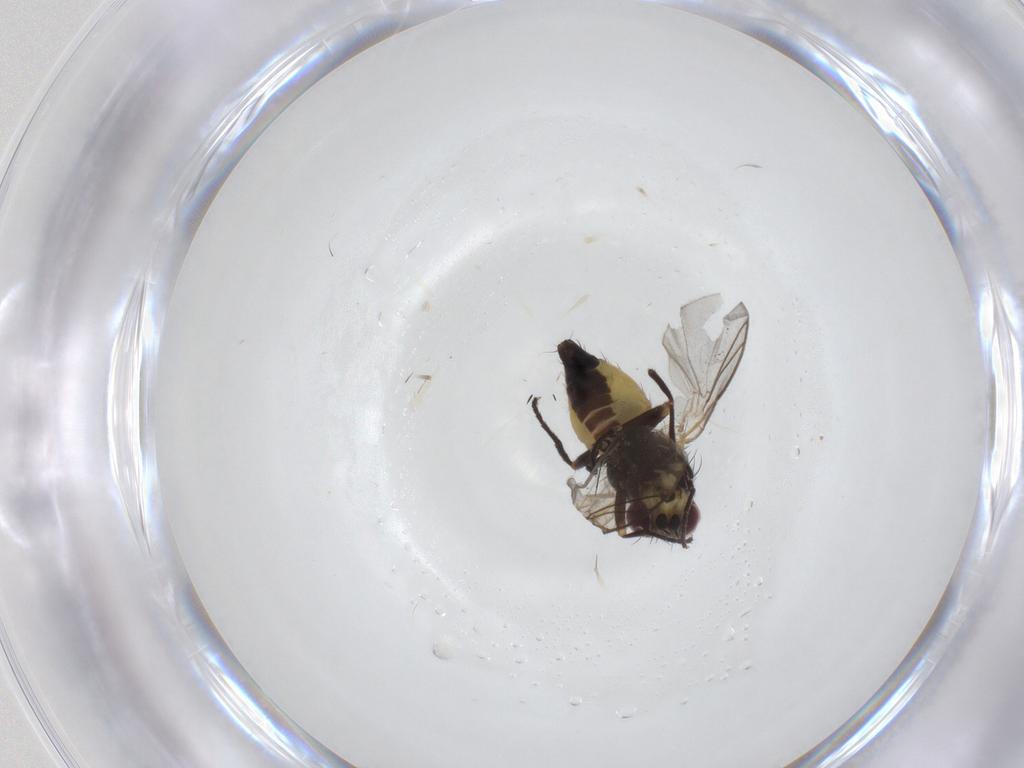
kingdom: Animalia
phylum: Arthropoda
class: Insecta
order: Diptera
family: Agromyzidae
